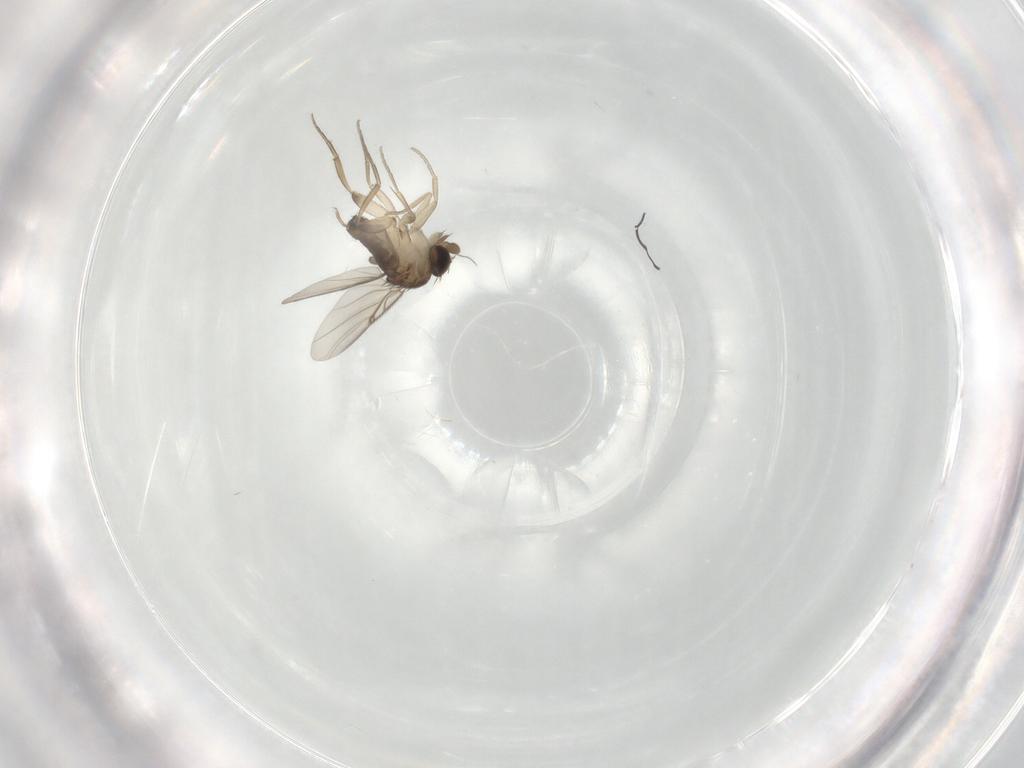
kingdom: Animalia
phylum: Arthropoda
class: Insecta
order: Diptera
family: Phoridae
